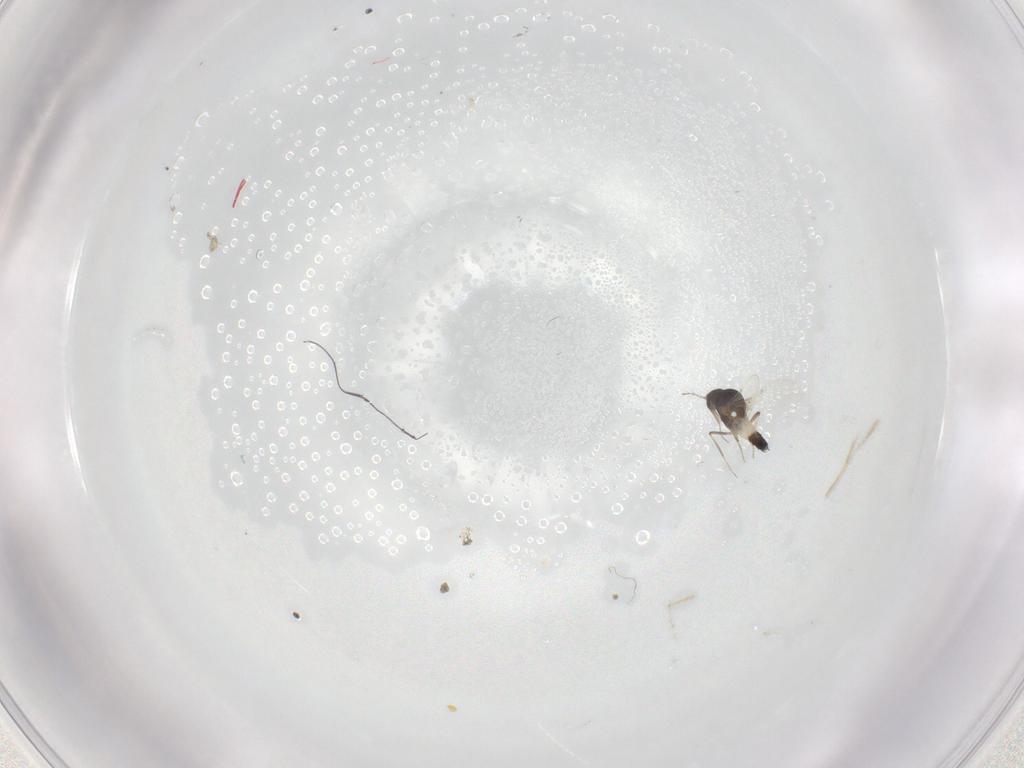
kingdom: Animalia
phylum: Arthropoda
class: Insecta
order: Diptera
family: Ceratopogonidae
